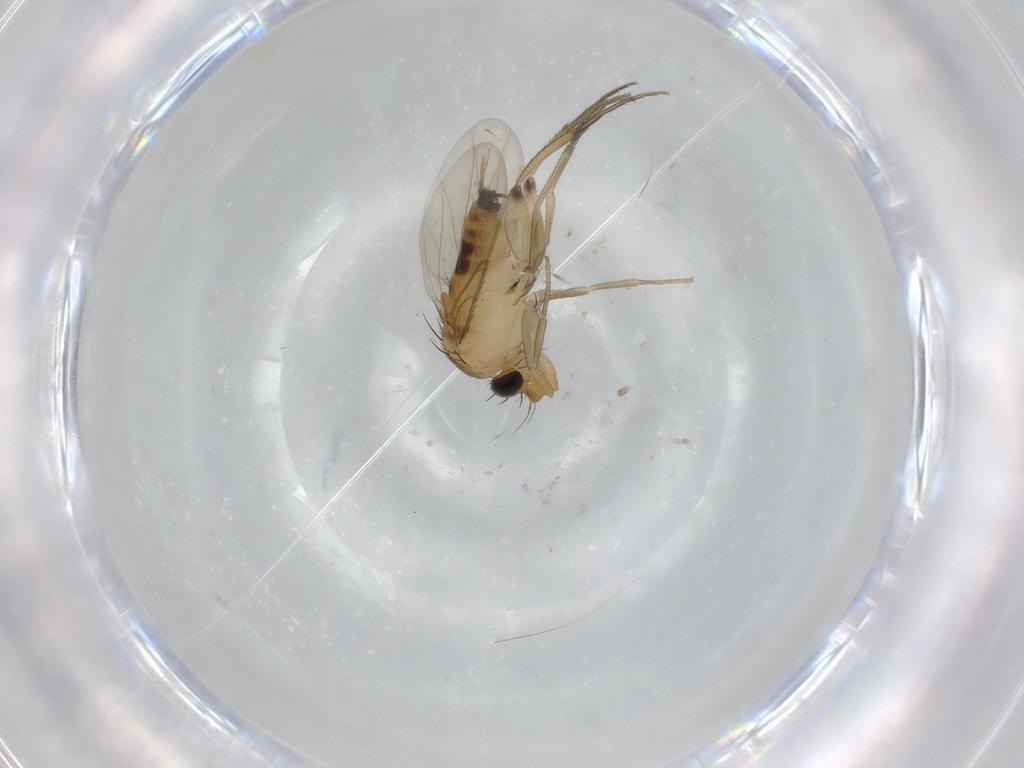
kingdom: Animalia
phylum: Arthropoda
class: Insecta
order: Diptera
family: Phoridae
